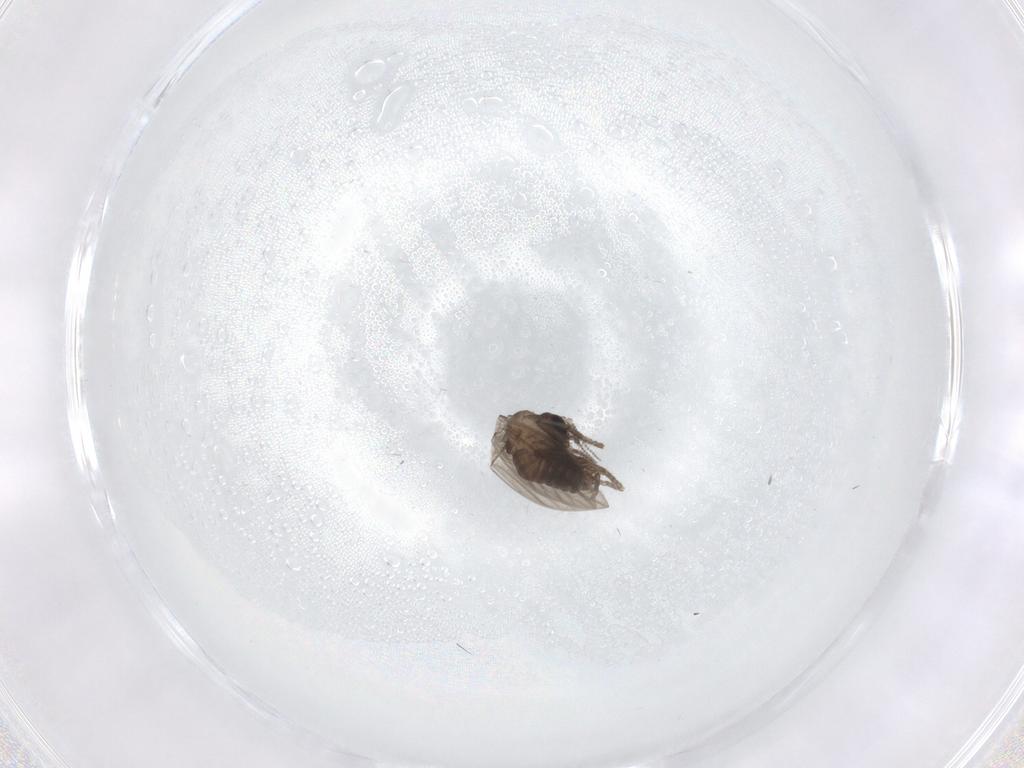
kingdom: Animalia
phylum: Arthropoda
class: Insecta
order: Diptera
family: Psychodidae
